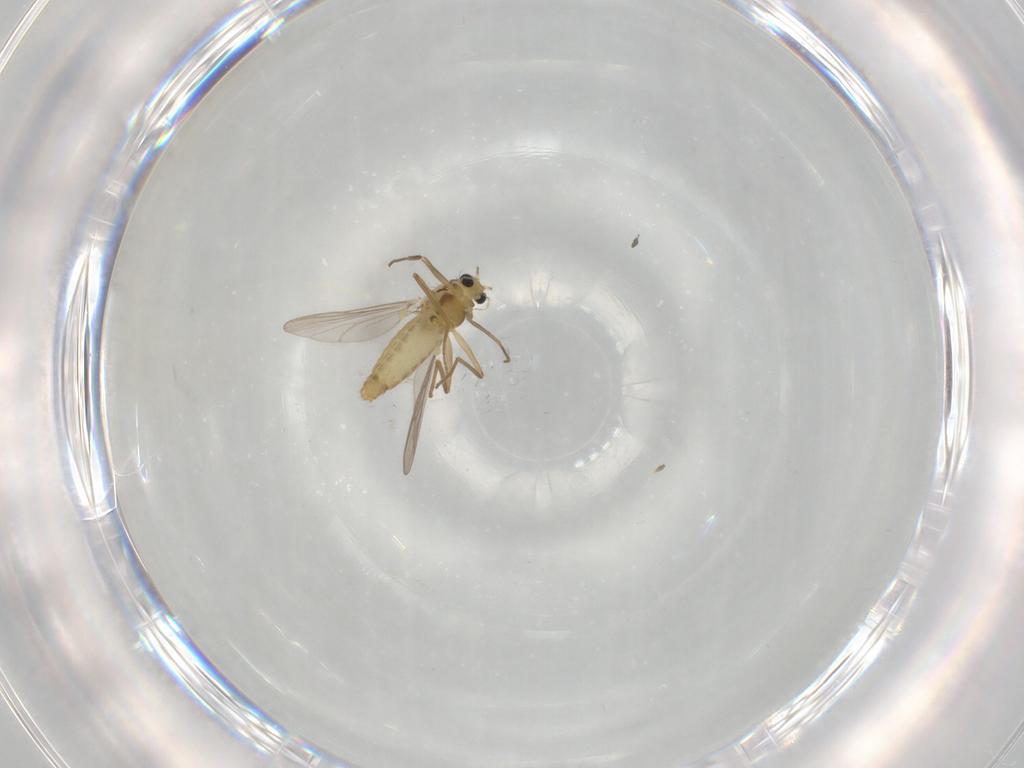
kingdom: Animalia
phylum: Arthropoda
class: Insecta
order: Diptera
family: Chironomidae
